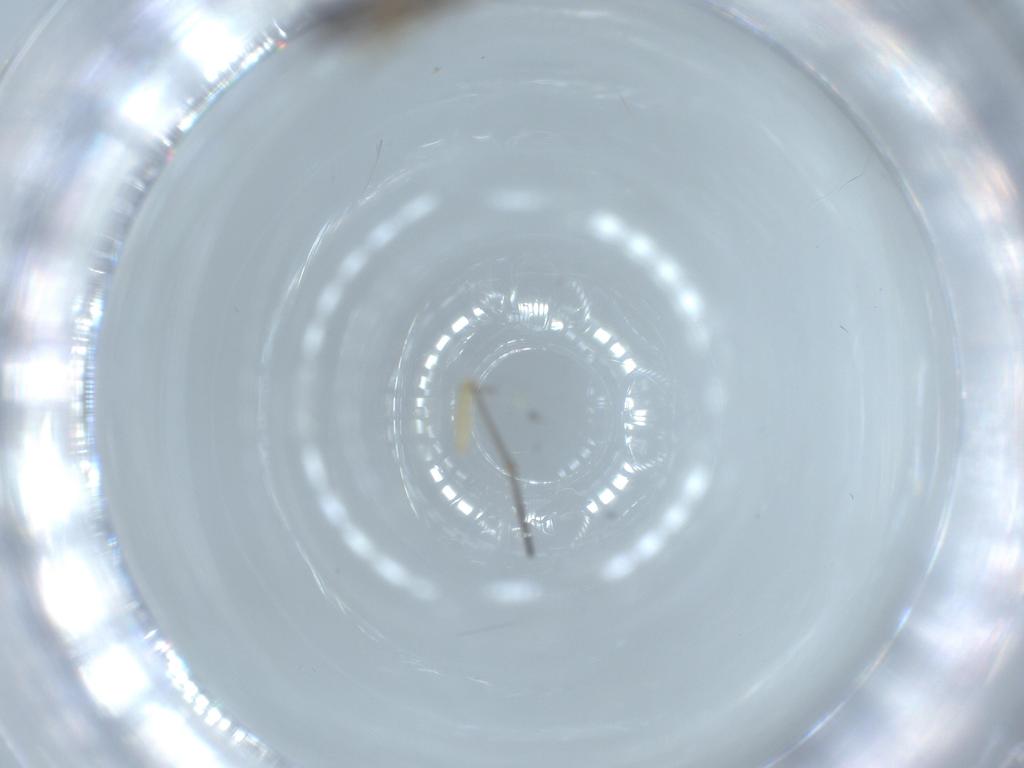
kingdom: Animalia
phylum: Arthropoda
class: Insecta
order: Diptera
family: Sciaridae
